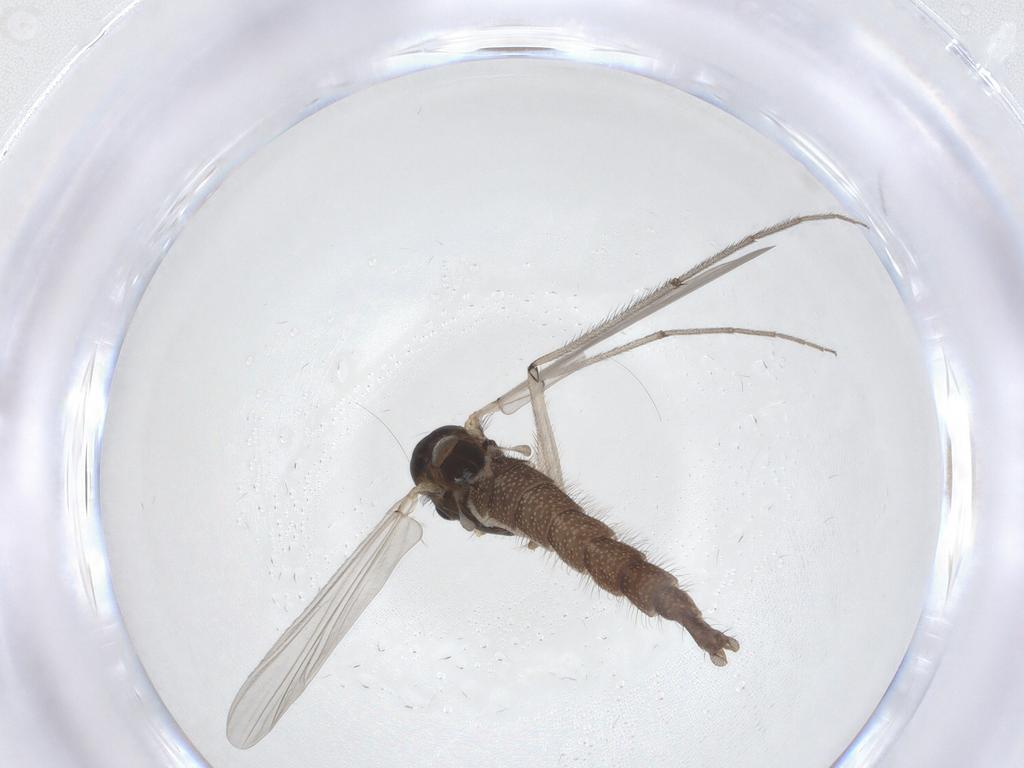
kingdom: Animalia
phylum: Arthropoda
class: Insecta
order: Diptera
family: Chironomidae
